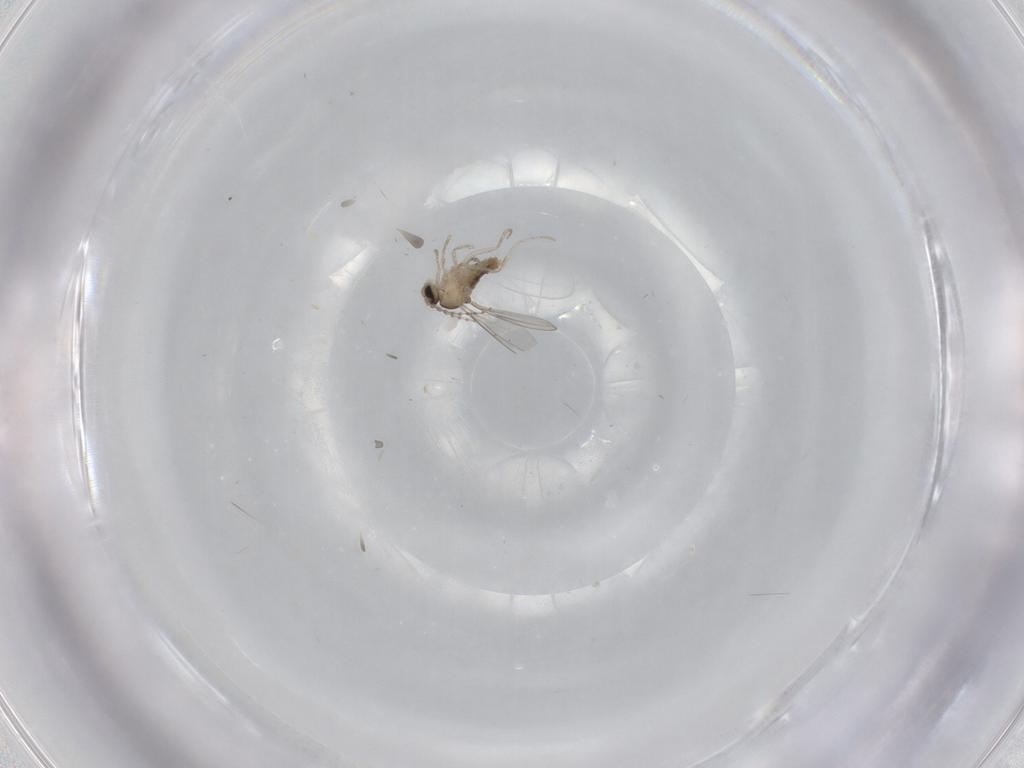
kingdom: Animalia
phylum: Arthropoda
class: Insecta
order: Diptera
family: Cecidomyiidae
